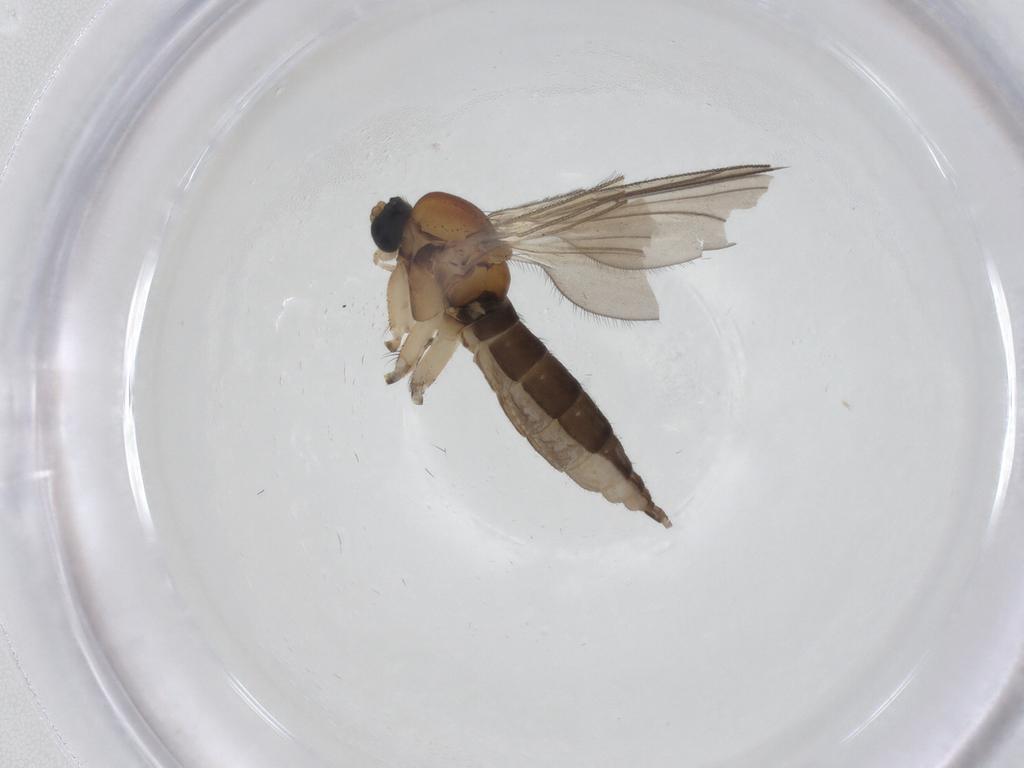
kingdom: Animalia
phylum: Arthropoda
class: Insecta
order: Diptera
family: Sciaridae
